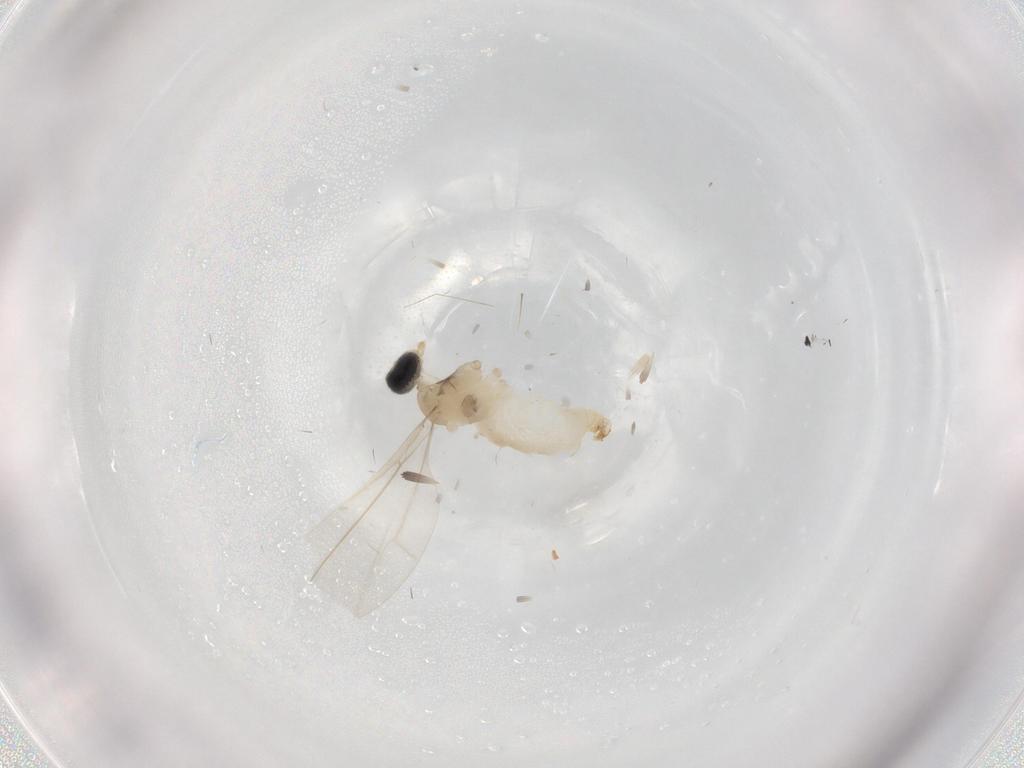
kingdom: Animalia
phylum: Arthropoda
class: Insecta
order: Diptera
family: Cecidomyiidae
